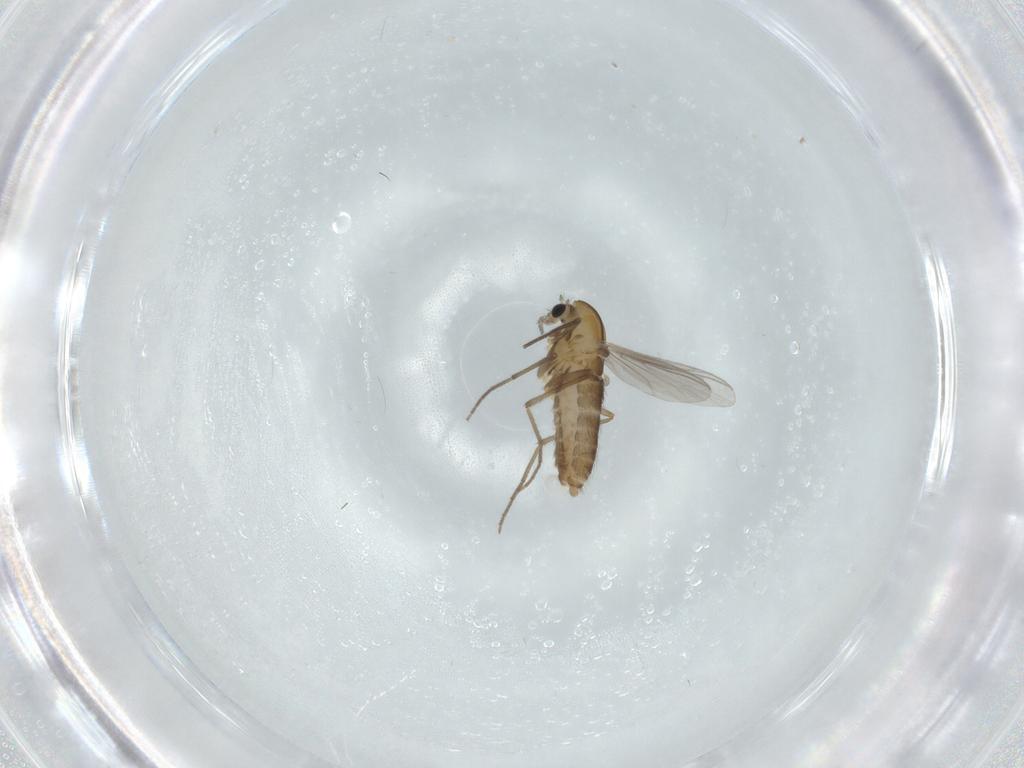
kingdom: Animalia
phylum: Arthropoda
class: Insecta
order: Diptera
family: Chironomidae
